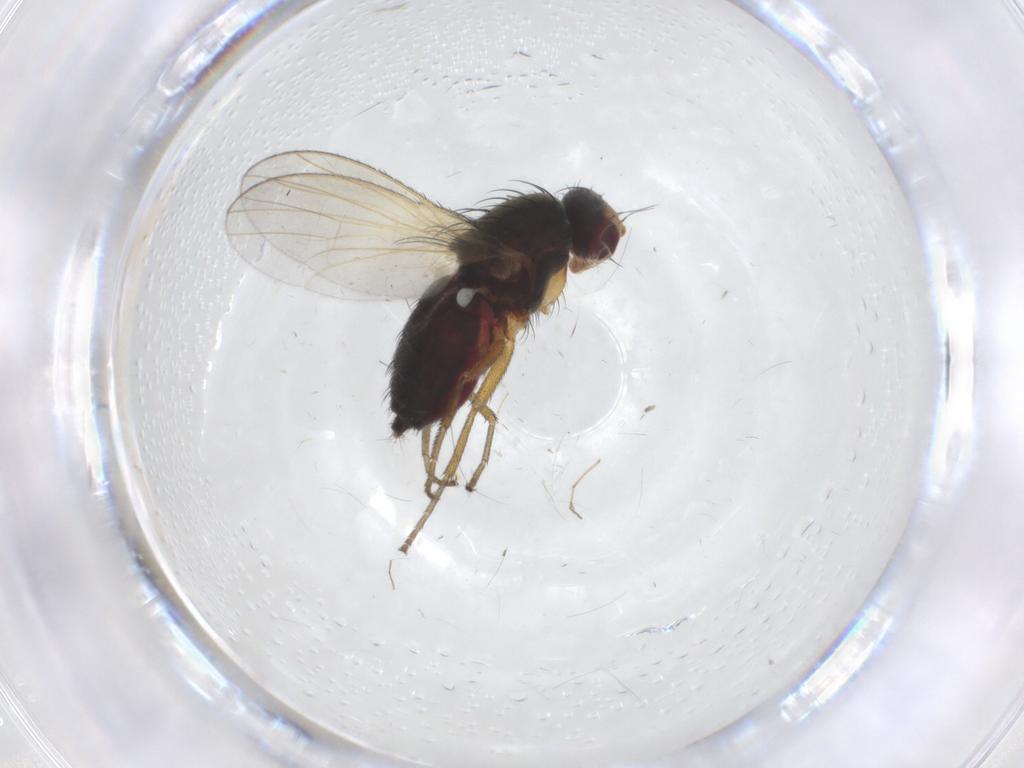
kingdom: Animalia
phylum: Arthropoda
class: Insecta
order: Diptera
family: Heleomyzidae
